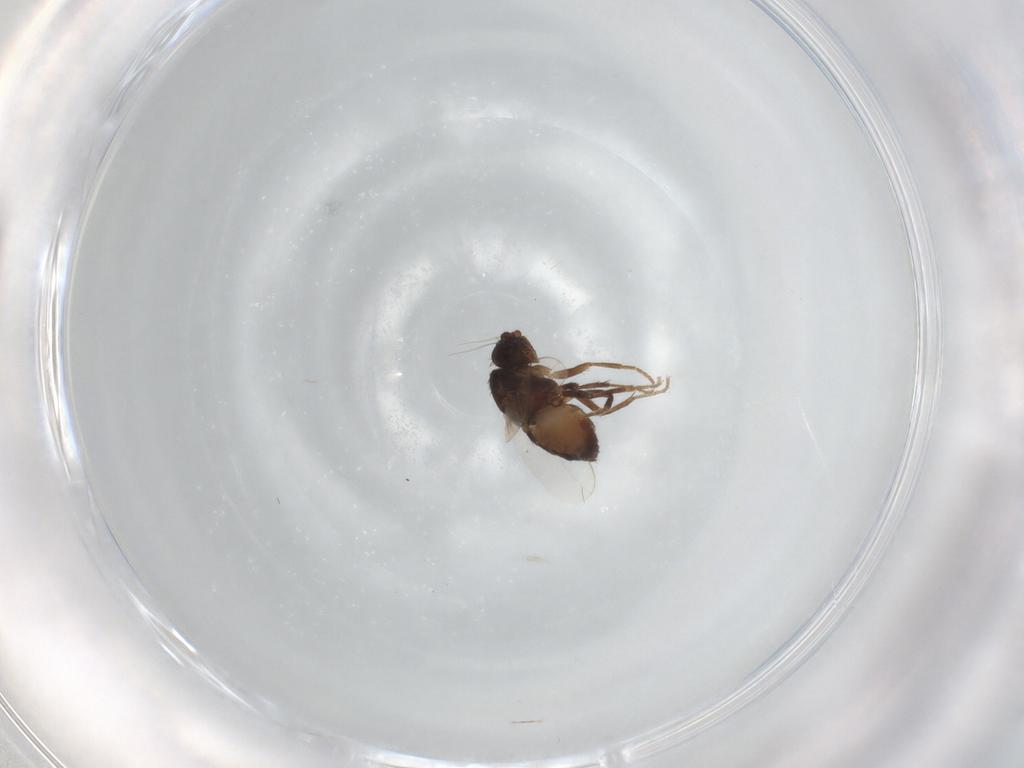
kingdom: Animalia
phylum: Arthropoda
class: Insecta
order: Diptera
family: Sphaeroceridae
